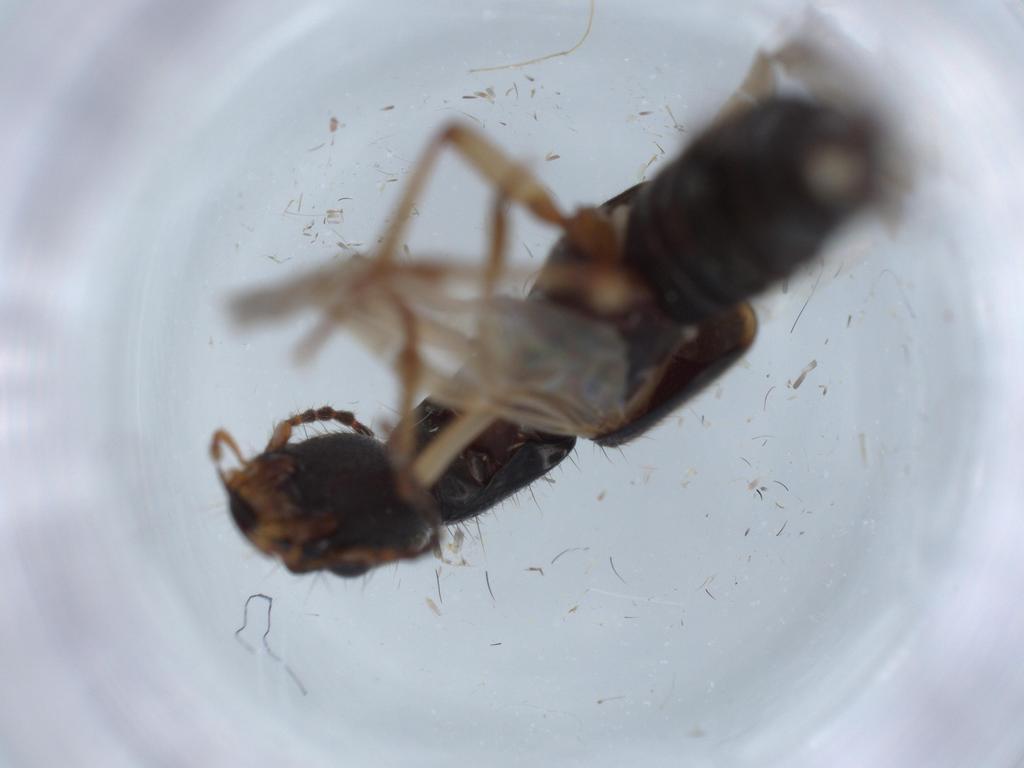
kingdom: Animalia
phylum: Arthropoda
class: Insecta
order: Coleoptera
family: Staphylinidae
